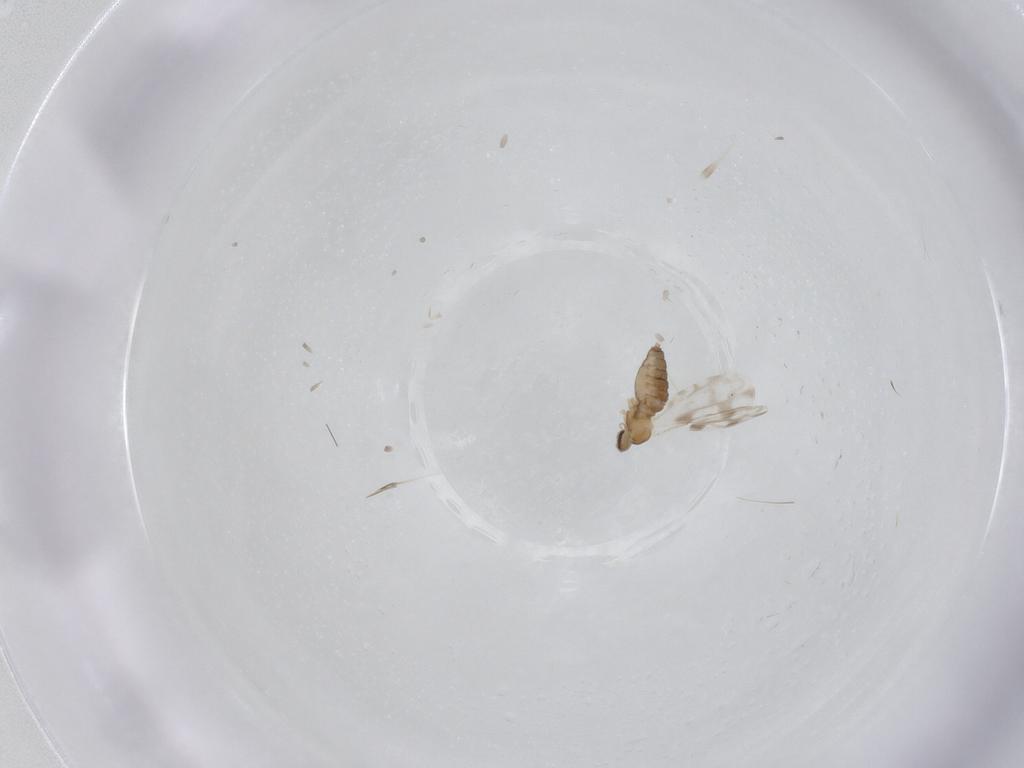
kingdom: Animalia
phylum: Arthropoda
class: Insecta
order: Diptera
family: Cecidomyiidae
